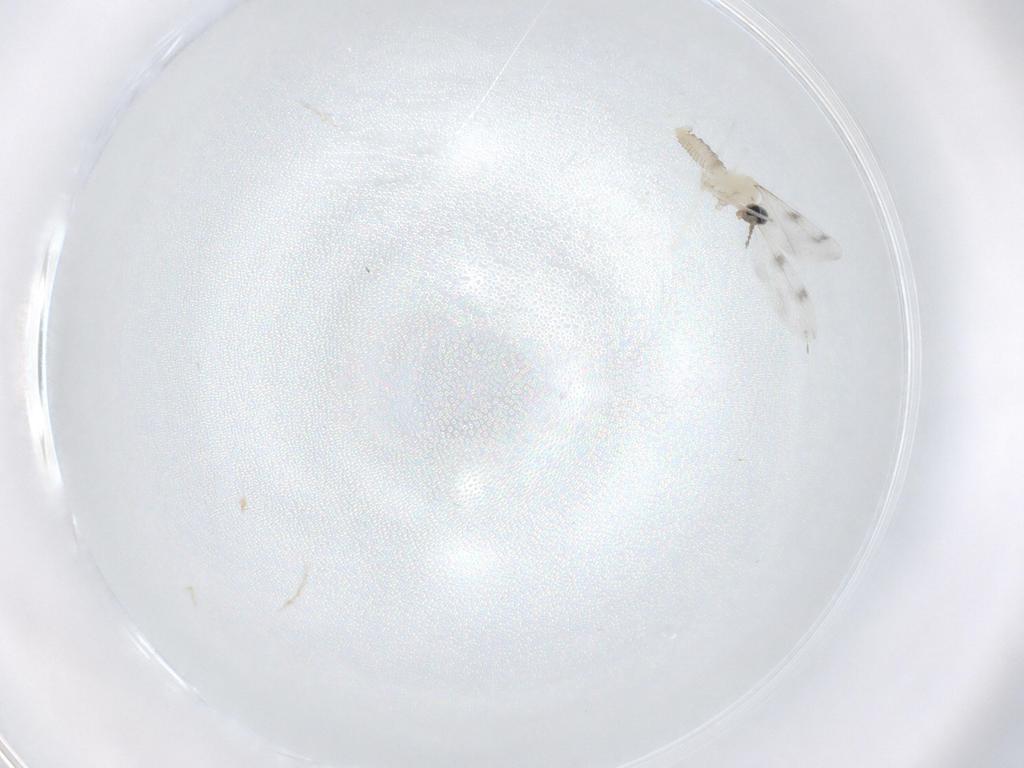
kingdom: Animalia
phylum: Arthropoda
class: Insecta
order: Diptera
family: Cecidomyiidae
